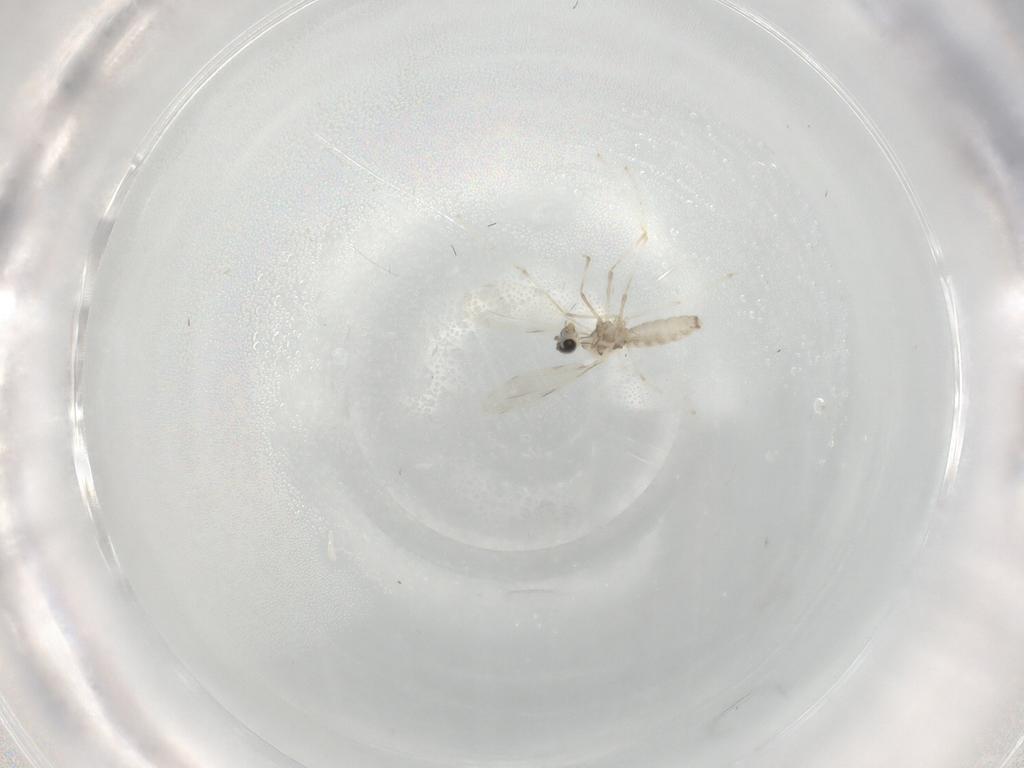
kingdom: Animalia
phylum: Arthropoda
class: Insecta
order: Diptera
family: Cecidomyiidae
